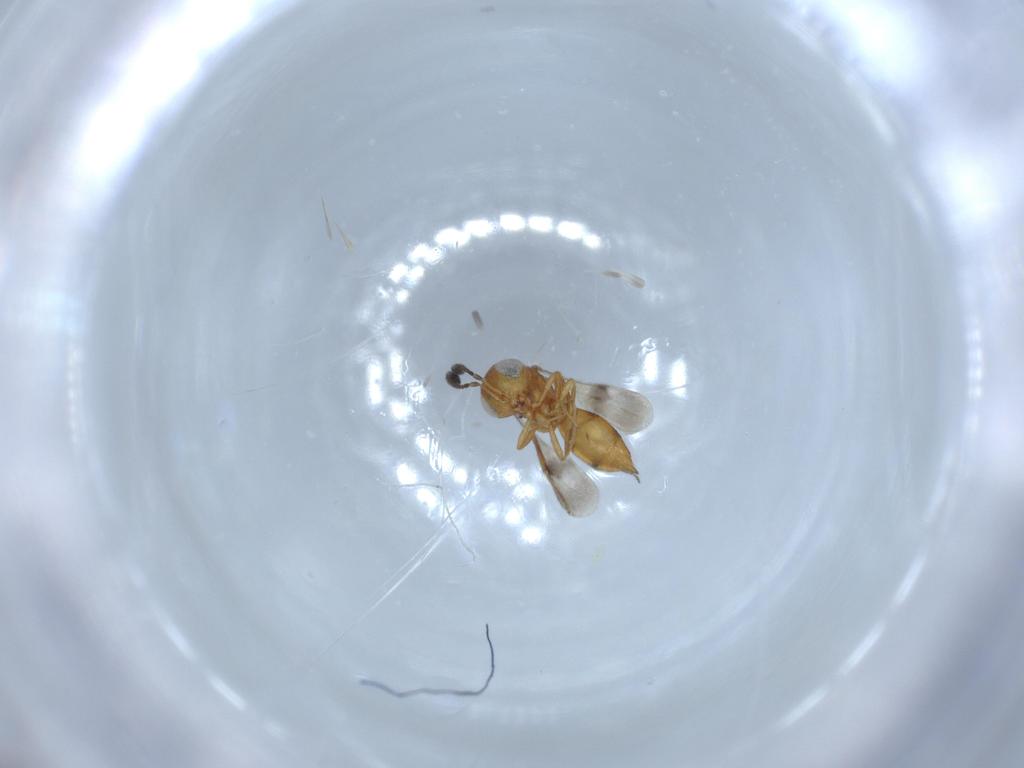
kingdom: Animalia
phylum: Arthropoda
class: Insecta
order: Hymenoptera
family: Scelionidae
